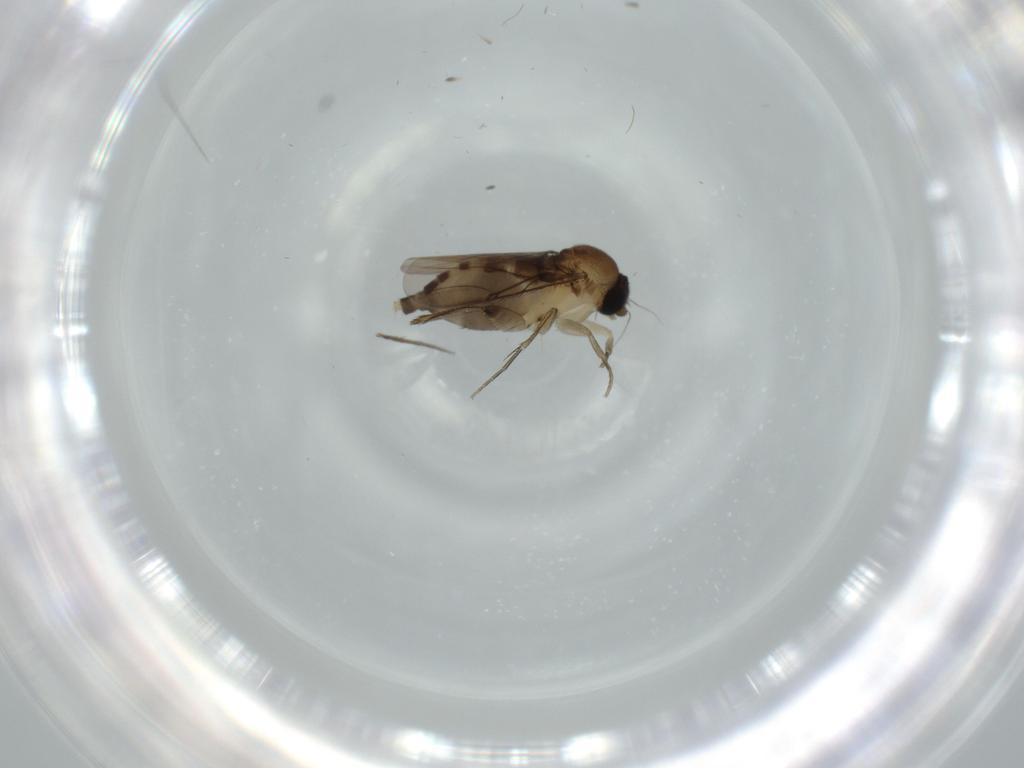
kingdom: Animalia
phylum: Arthropoda
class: Insecta
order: Diptera
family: Phoridae
